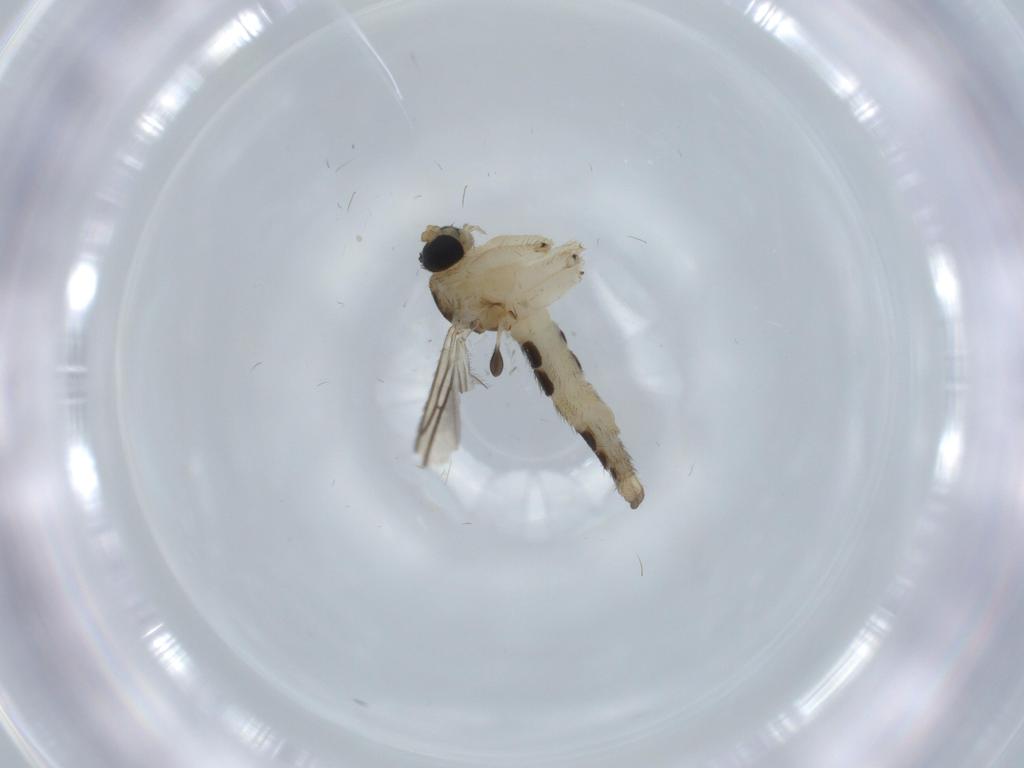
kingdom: Animalia
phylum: Arthropoda
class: Insecta
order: Diptera
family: Sciaridae
